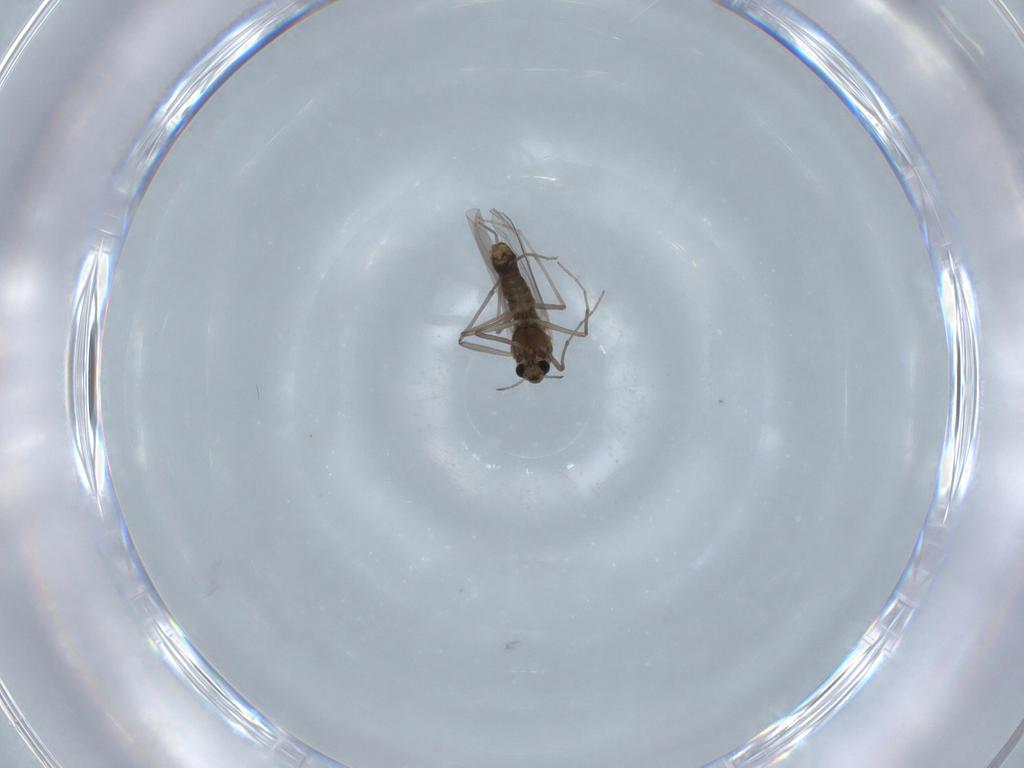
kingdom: Animalia
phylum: Arthropoda
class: Insecta
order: Diptera
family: Chironomidae
